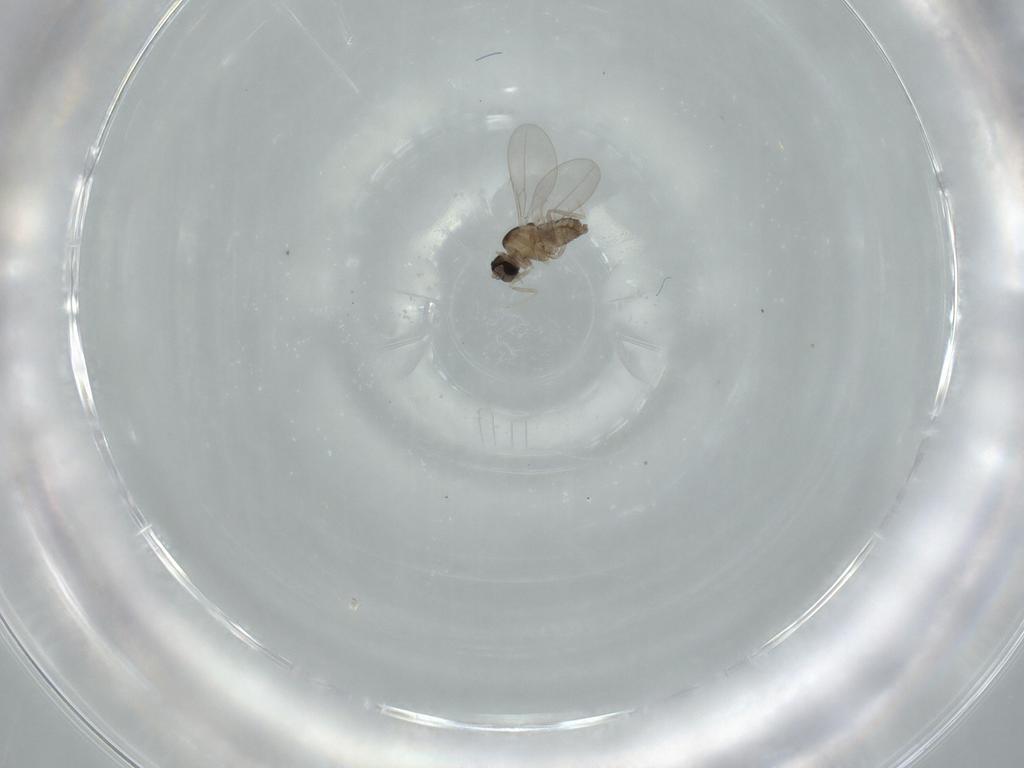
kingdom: Animalia
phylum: Arthropoda
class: Insecta
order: Diptera
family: Cecidomyiidae
